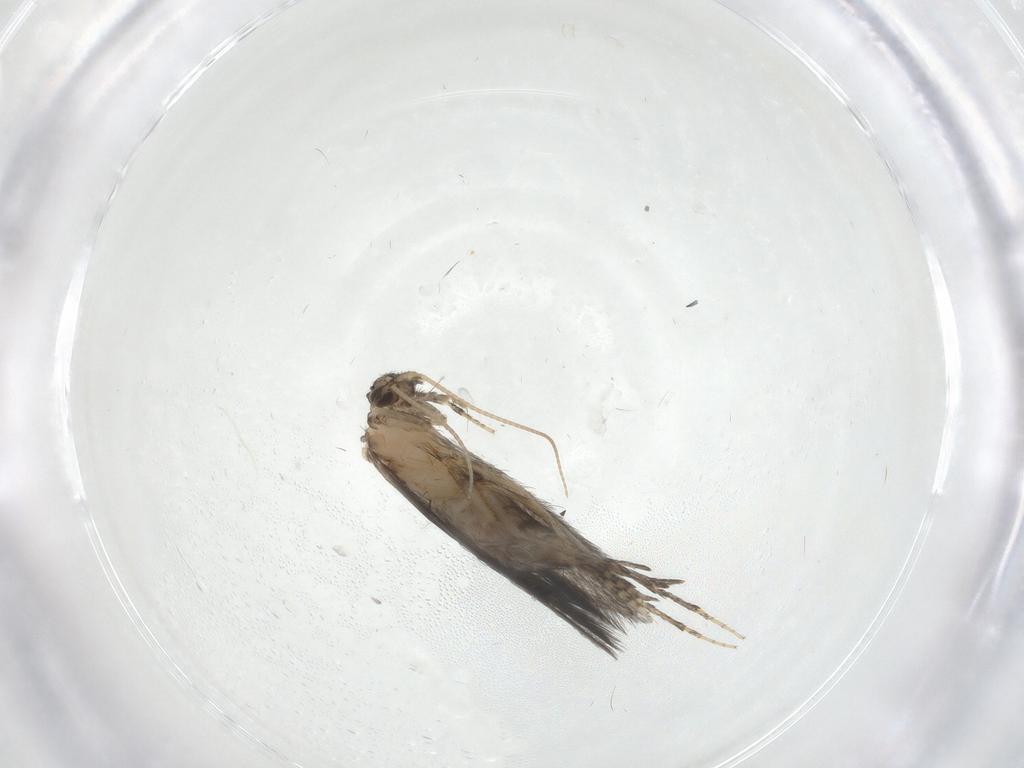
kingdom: Animalia
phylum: Arthropoda
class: Insecta
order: Trichoptera
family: Hydroptilidae
